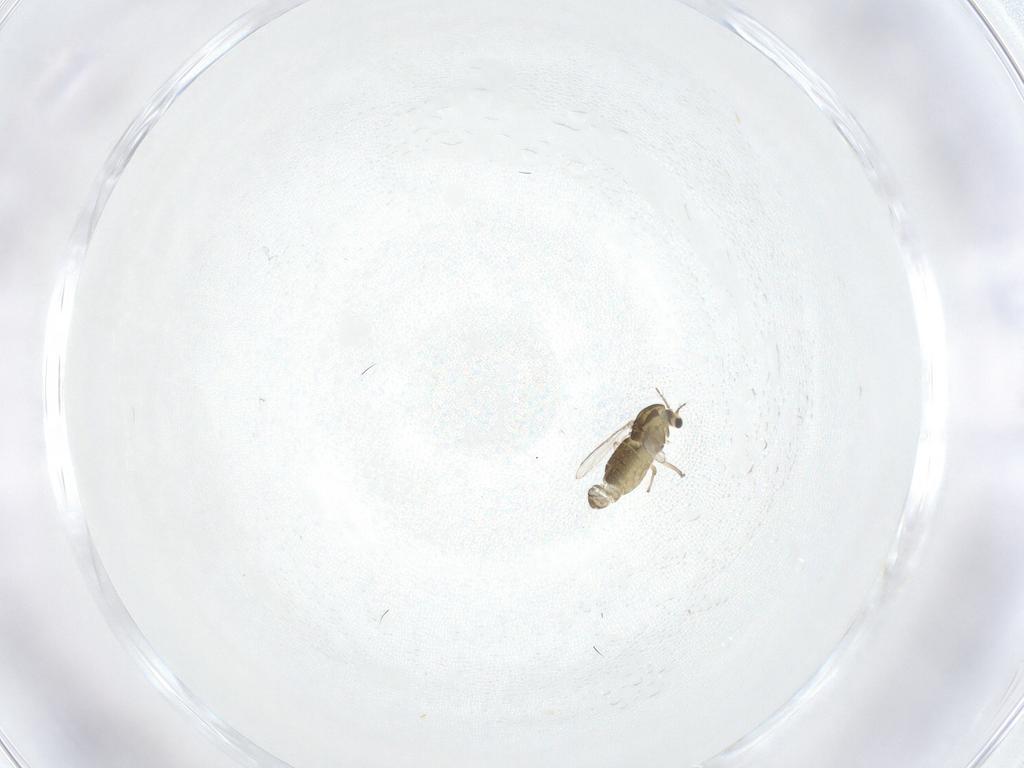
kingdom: Animalia
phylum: Arthropoda
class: Insecta
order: Diptera
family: Chironomidae
